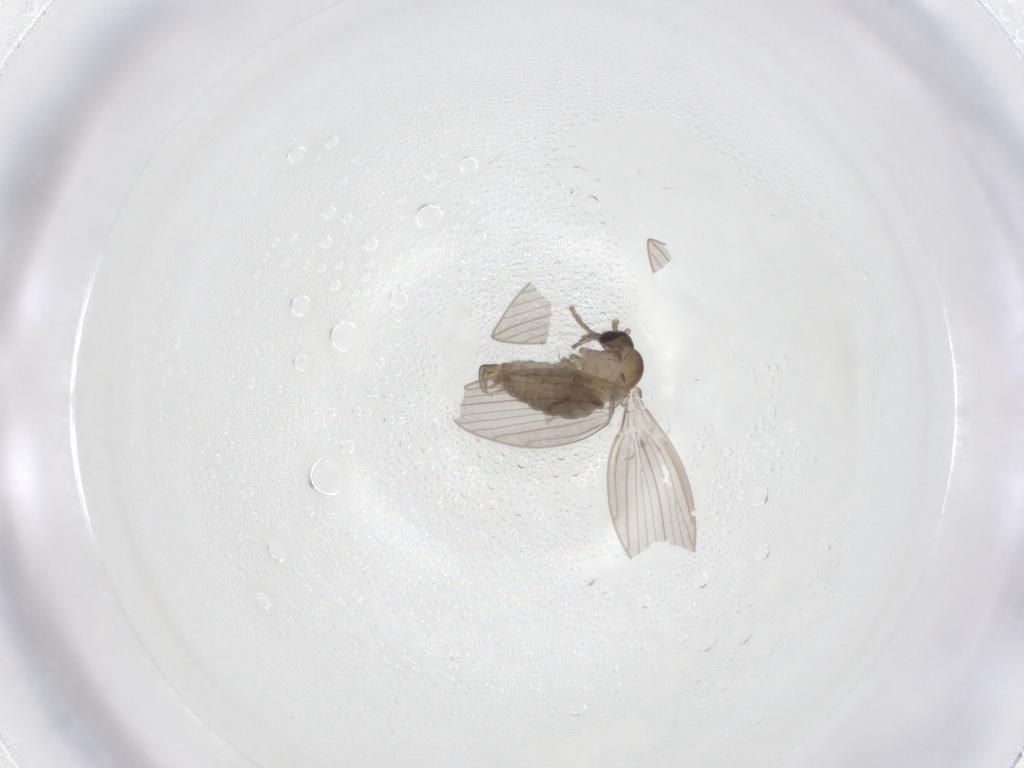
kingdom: Animalia
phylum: Arthropoda
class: Insecta
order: Diptera
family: Psychodidae
